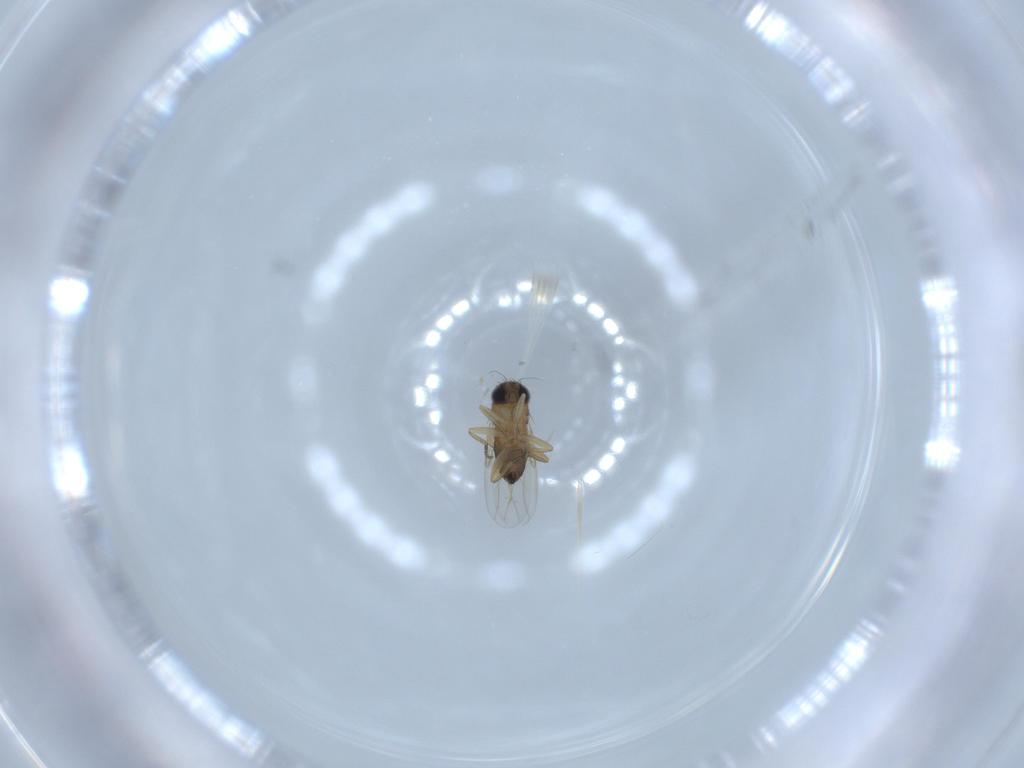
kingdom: Animalia
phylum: Arthropoda
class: Insecta
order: Diptera
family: Phoridae
